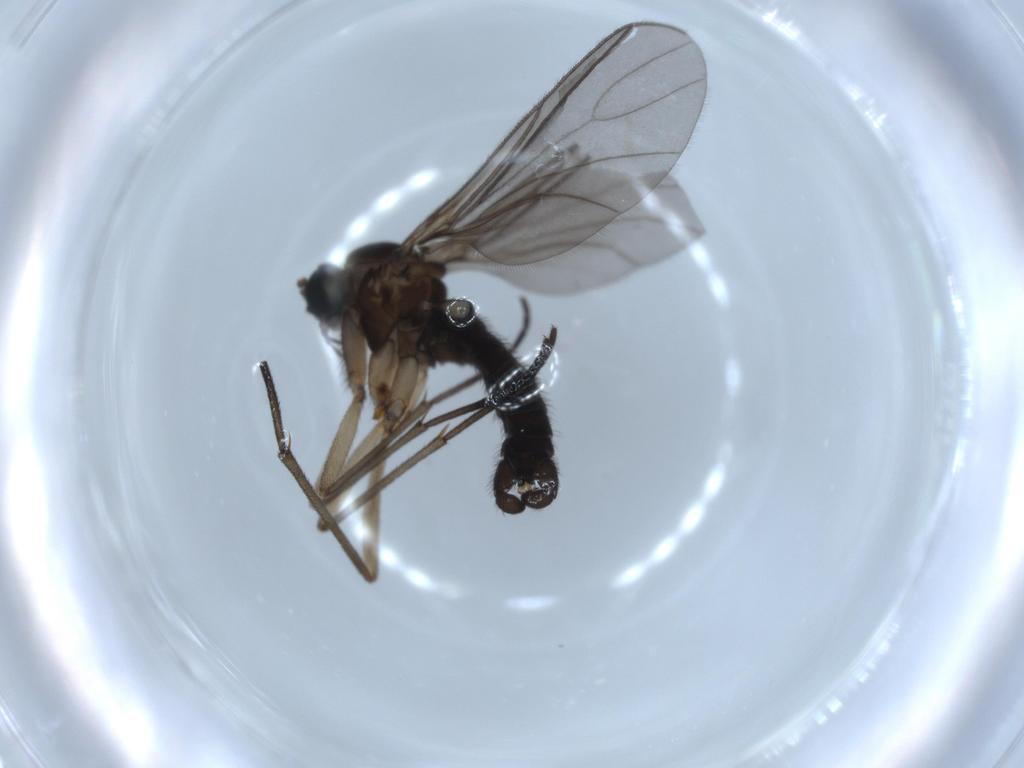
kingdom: Animalia
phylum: Arthropoda
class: Insecta
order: Diptera
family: Sciaridae
